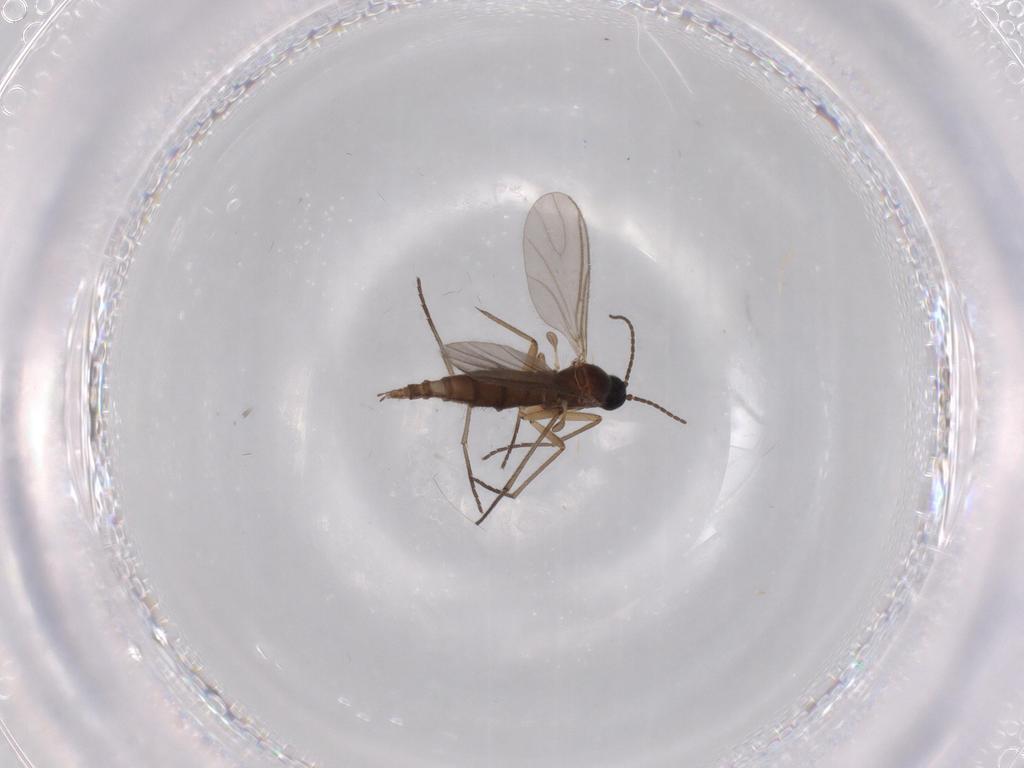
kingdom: Animalia
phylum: Arthropoda
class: Insecta
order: Diptera
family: Sciaridae
